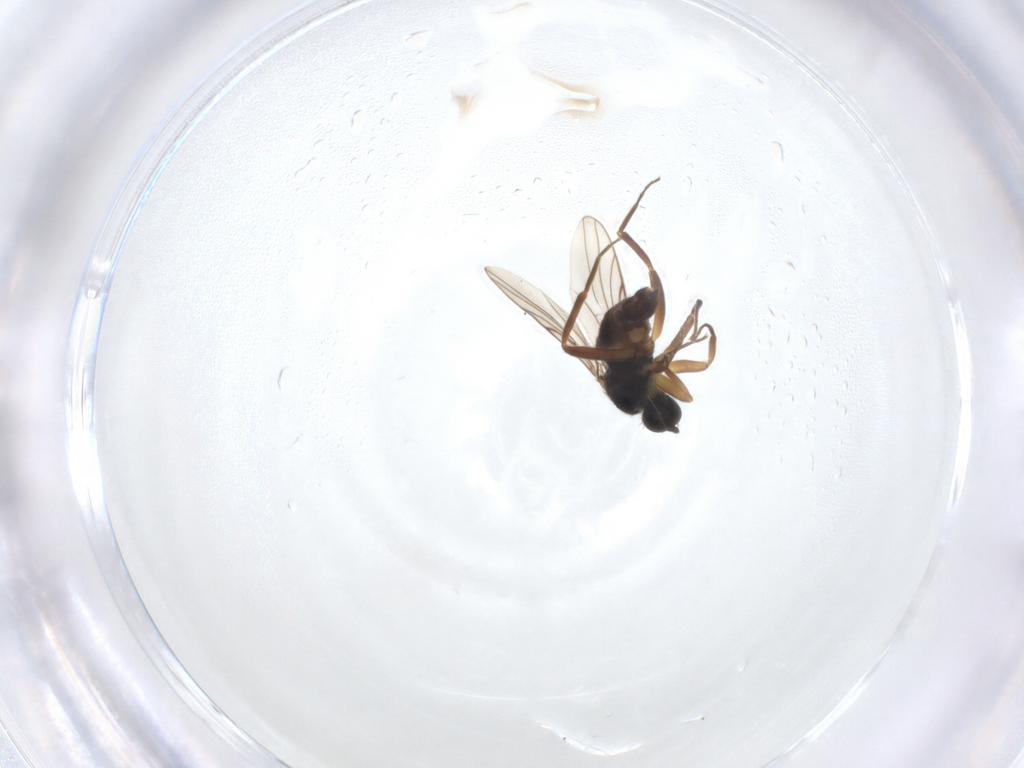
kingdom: Animalia
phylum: Arthropoda
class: Insecta
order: Diptera
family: Hybotidae
